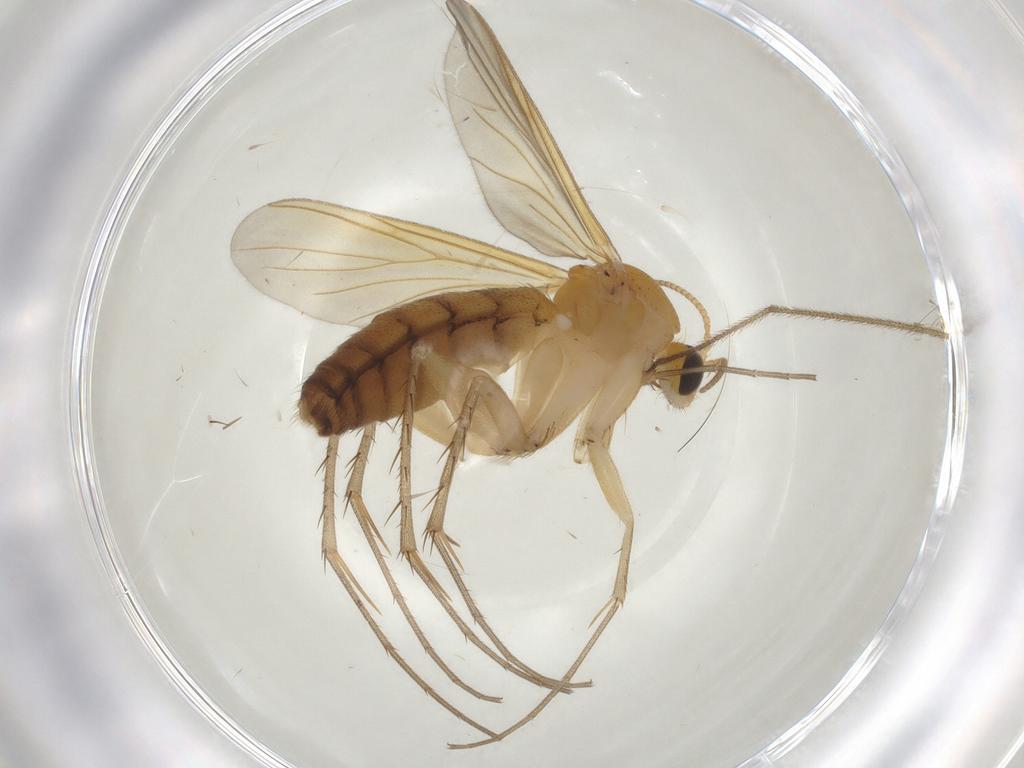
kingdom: Animalia
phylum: Arthropoda
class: Insecta
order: Diptera
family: Mycetophilidae
